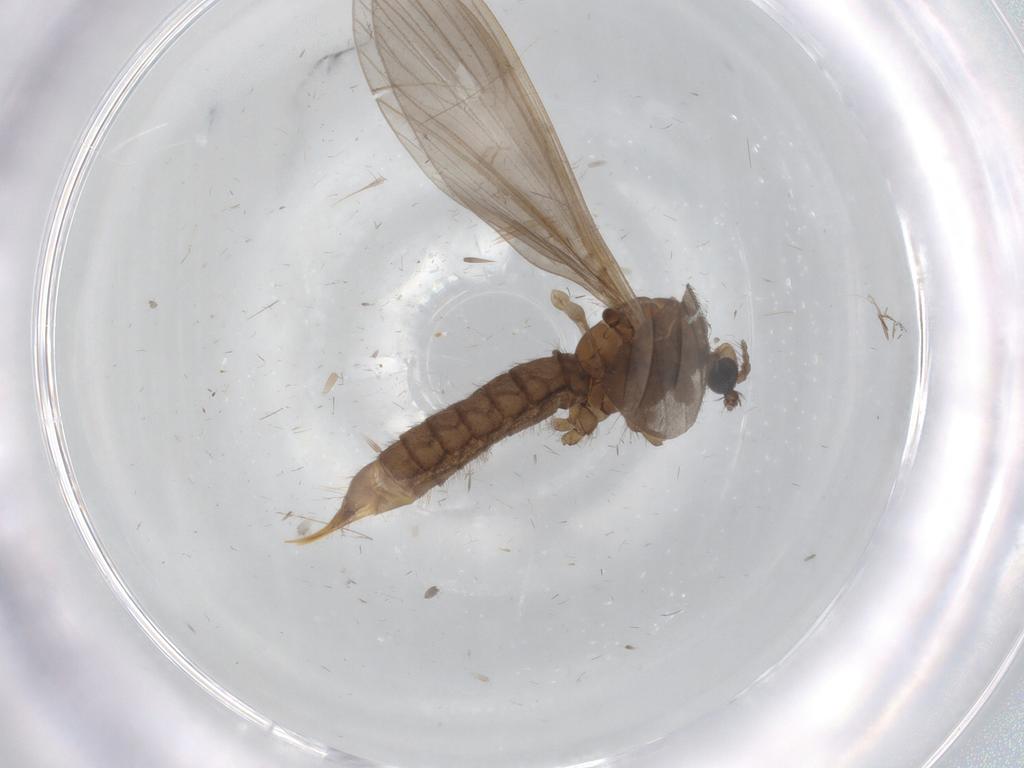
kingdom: Animalia
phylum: Arthropoda
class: Insecta
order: Diptera
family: Limoniidae
